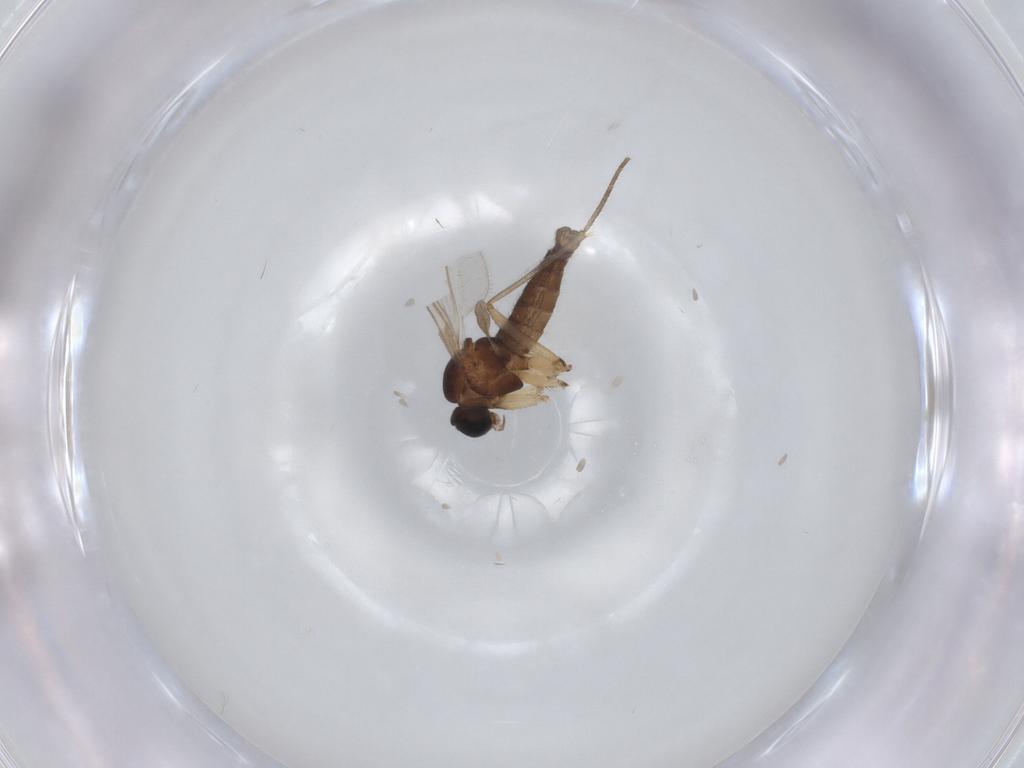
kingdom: Animalia
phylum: Arthropoda
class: Insecta
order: Diptera
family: Sciaridae
